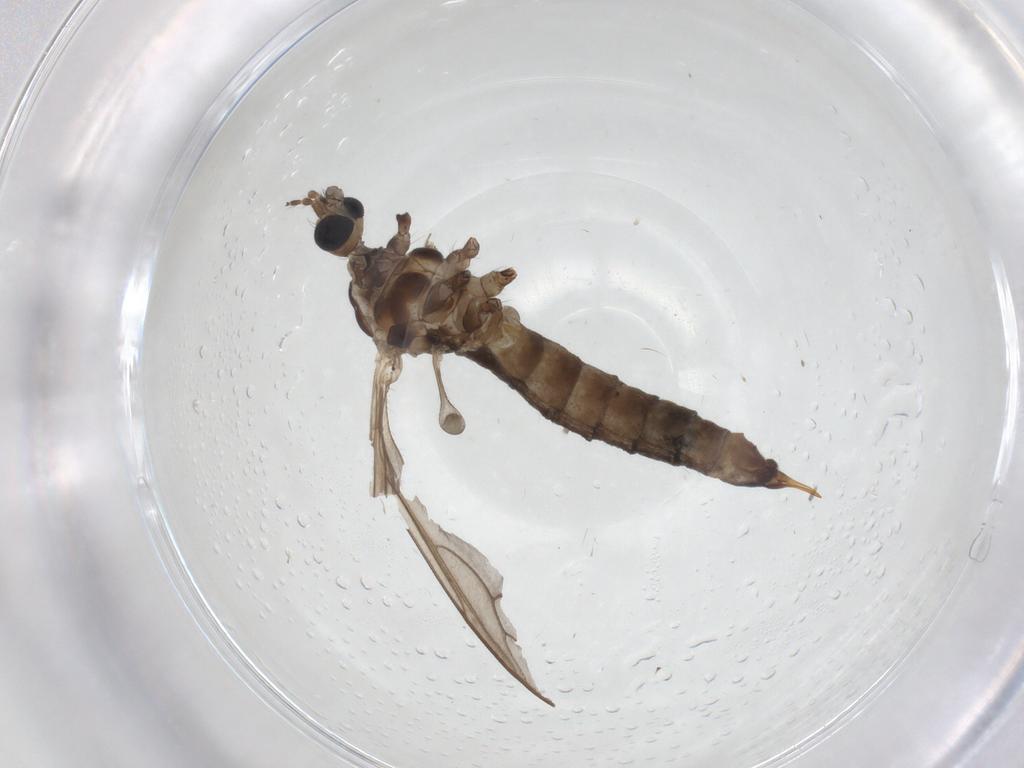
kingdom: Animalia
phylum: Arthropoda
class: Insecta
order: Diptera
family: Limoniidae
